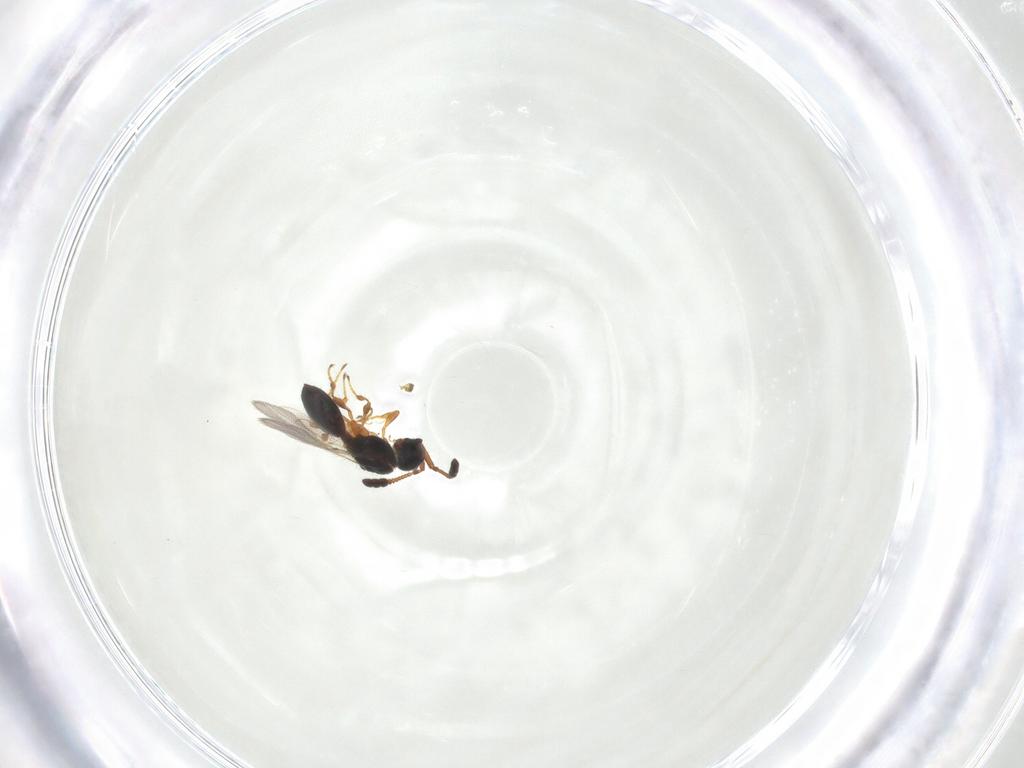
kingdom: Animalia
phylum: Arthropoda
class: Insecta
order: Hymenoptera
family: Diapriidae
